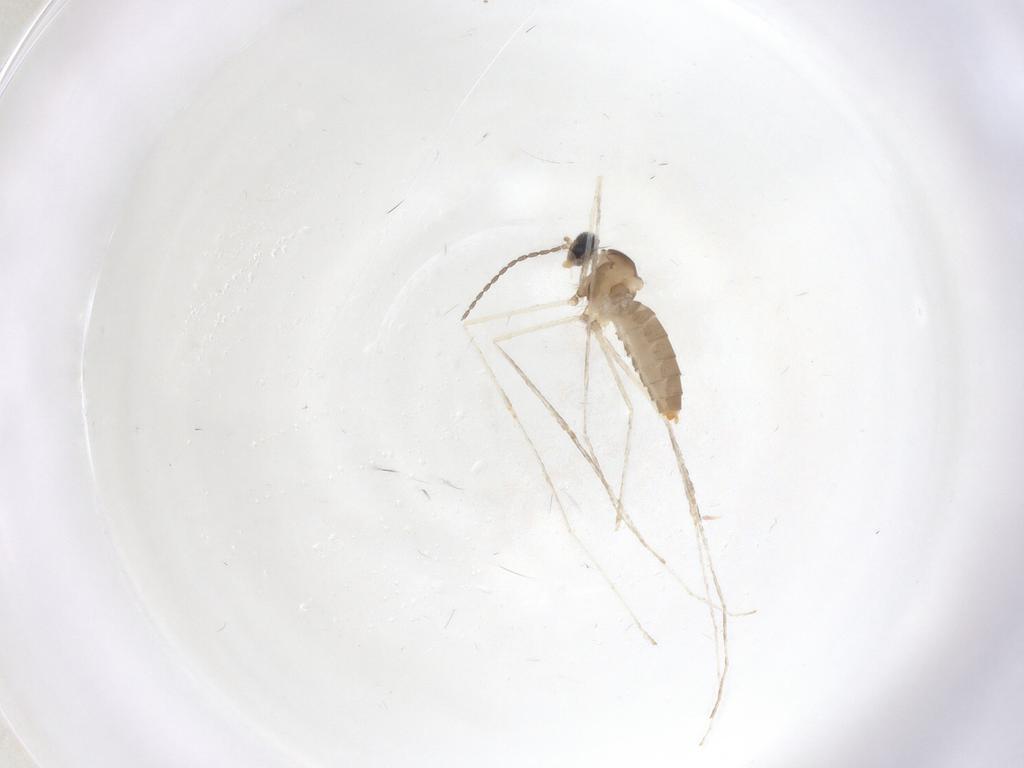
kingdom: Animalia
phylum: Arthropoda
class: Insecta
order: Diptera
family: Cecidomyiidae
